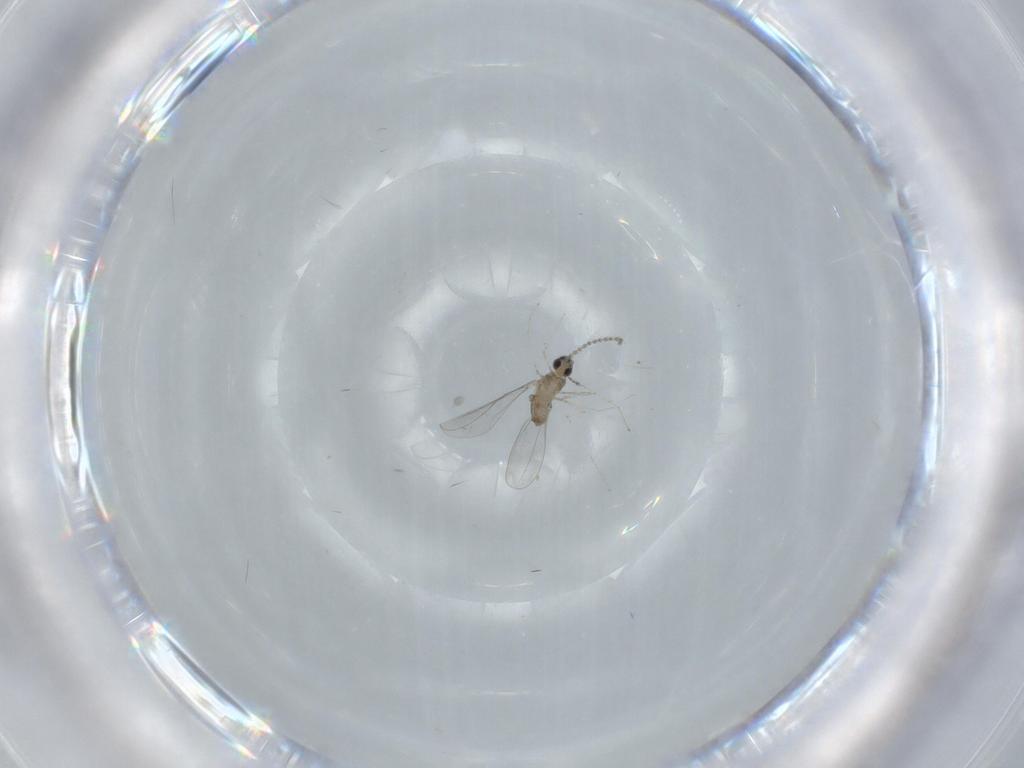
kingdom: Animalia
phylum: Arthropoda
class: Insecta
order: Diptera
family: Cecidomyiidae
